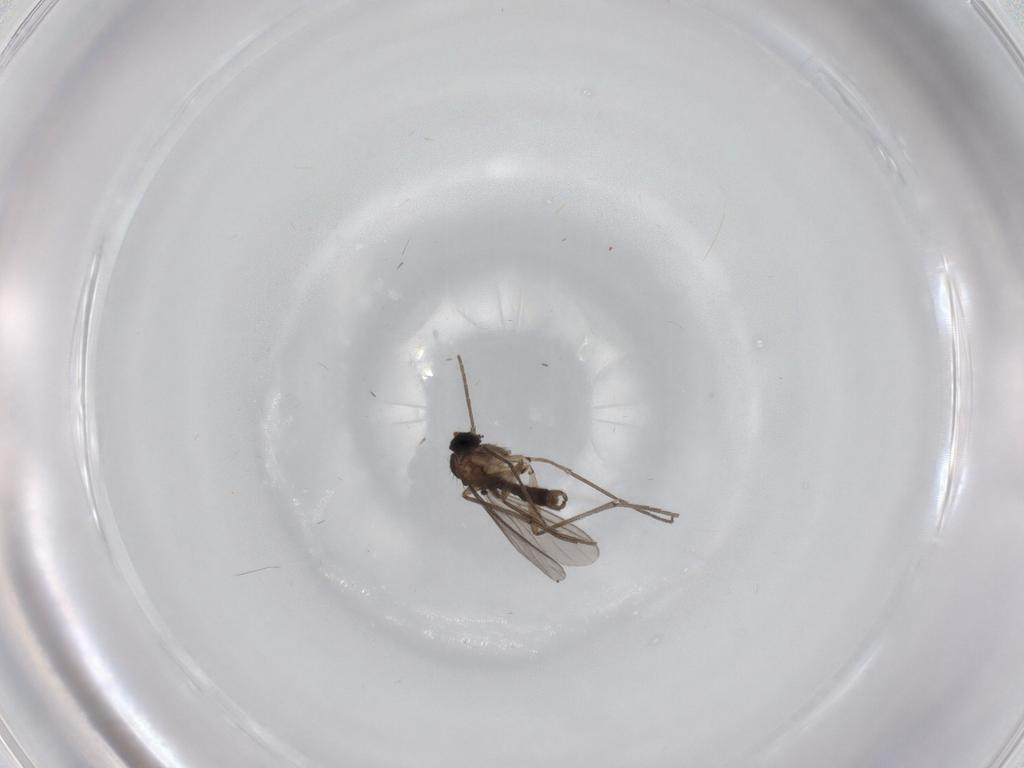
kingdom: Animalia
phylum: Arthropoda
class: Insecta
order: Diptera
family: Sciaridae
